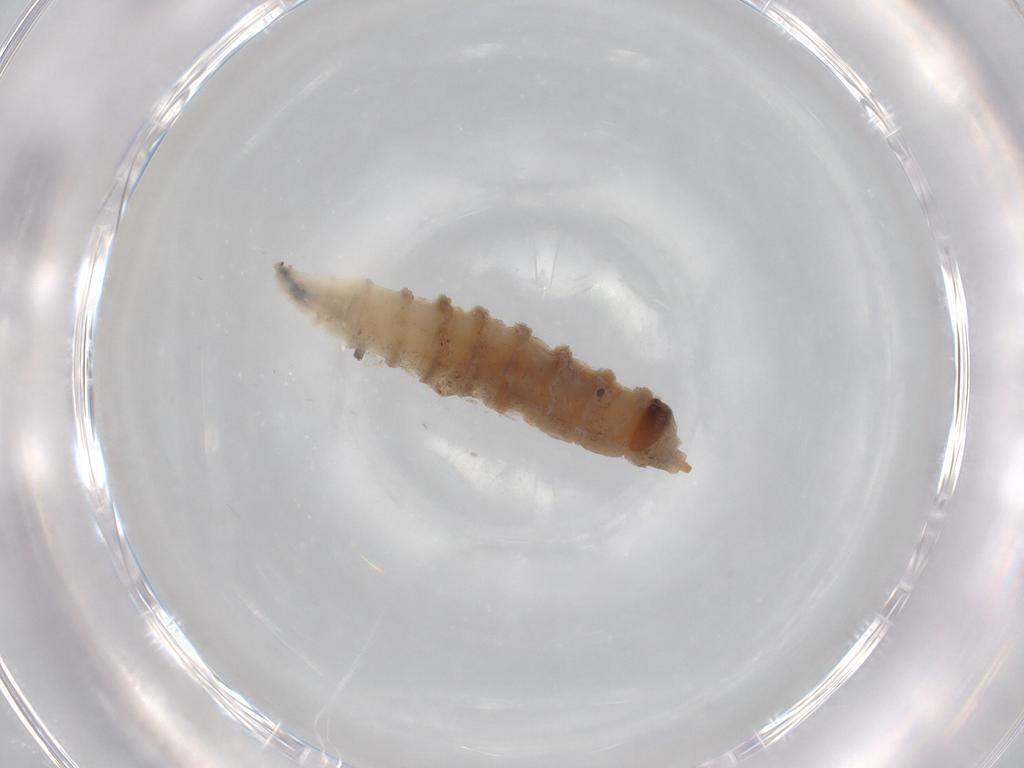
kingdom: Animalia
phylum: Arthropoda
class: Insecta
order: Diptera
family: Drosophilidae
